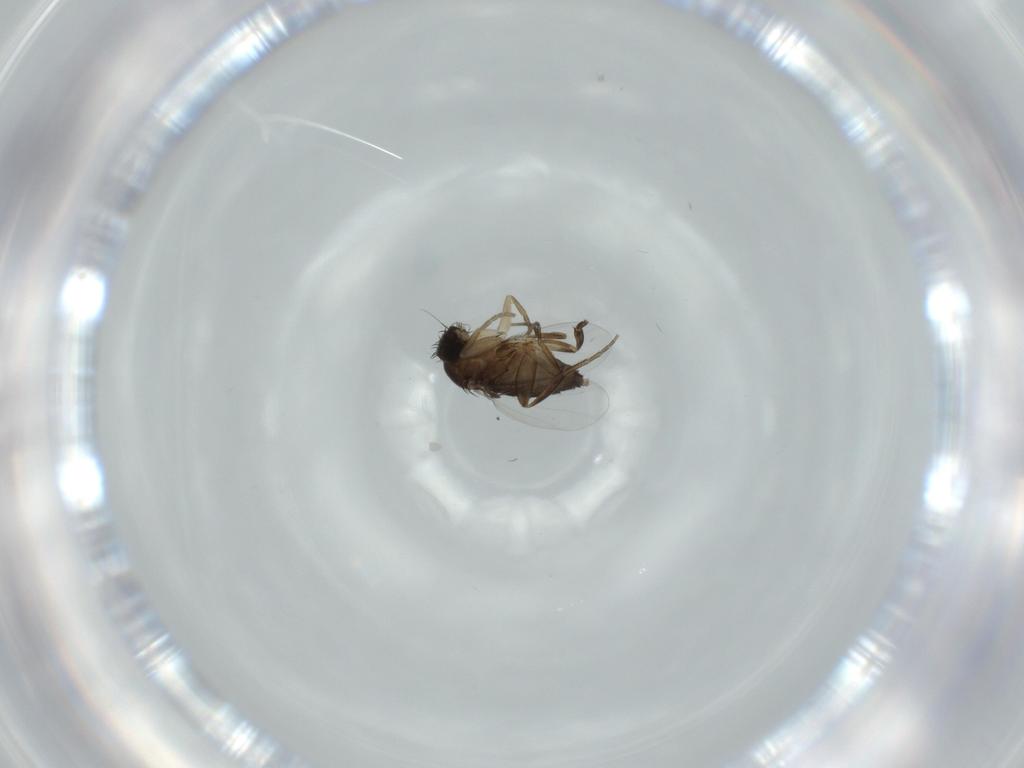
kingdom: Animalia
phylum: Arthropoda
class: Insecta
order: Diptera
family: Phoridae
